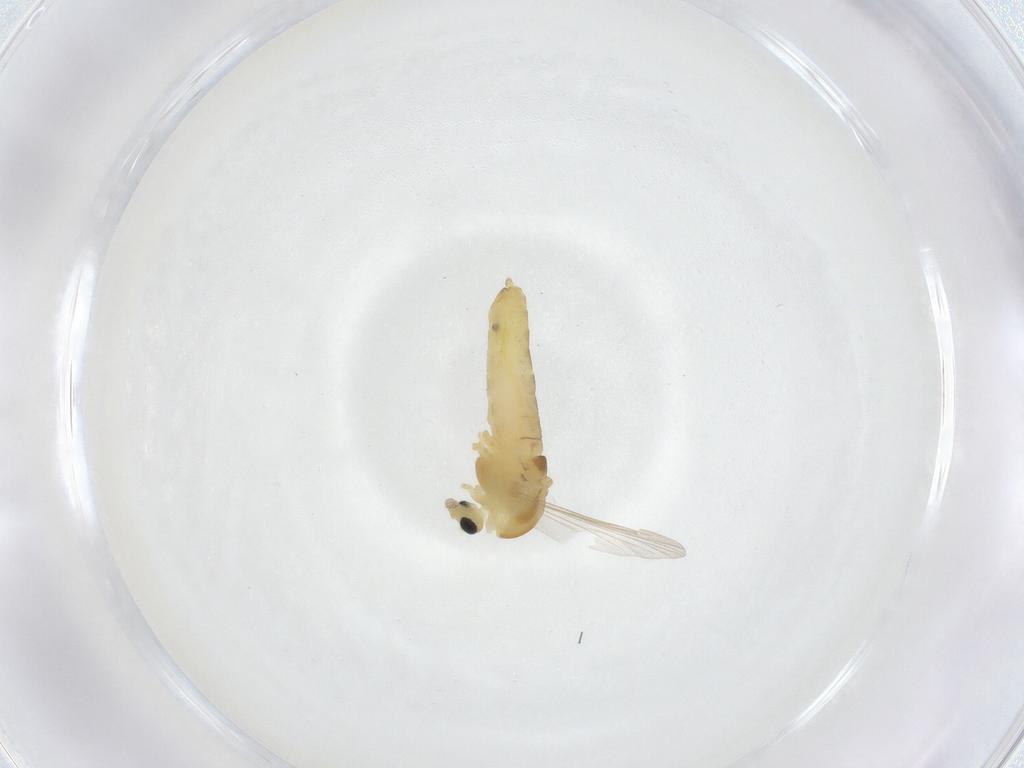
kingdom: Animalia
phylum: Arthropoda
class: Insecta
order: Diptera
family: Chironomidae
